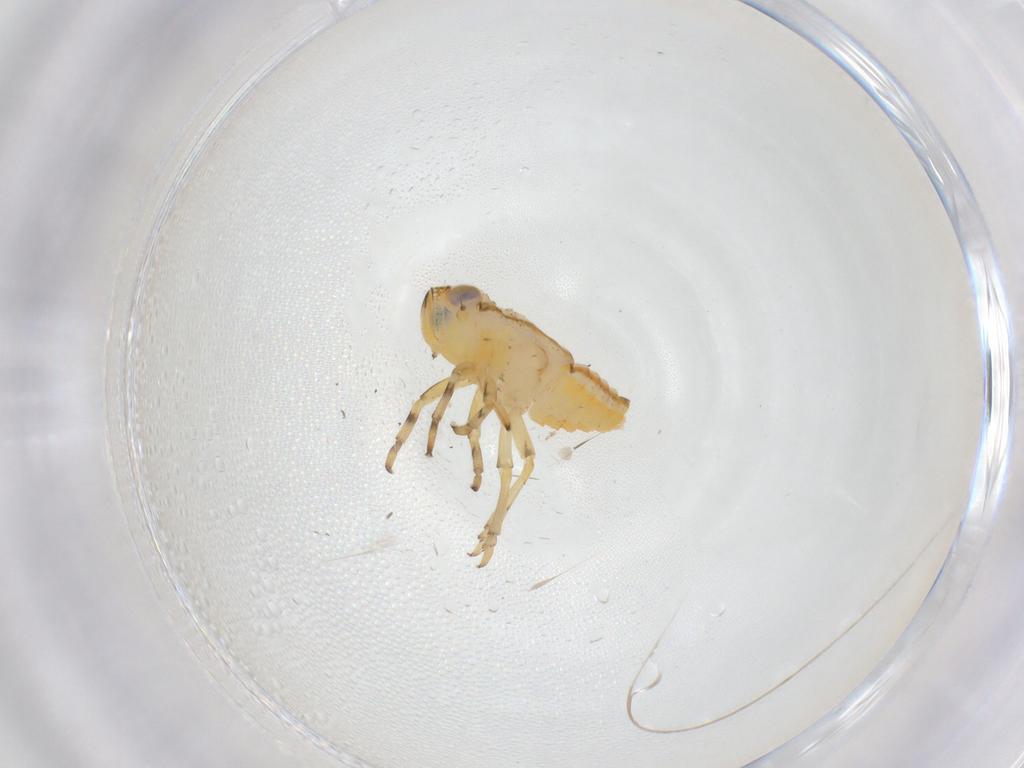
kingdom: Animalia
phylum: Arthropoda
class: Insecta
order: Hemiptera
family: Issidae
